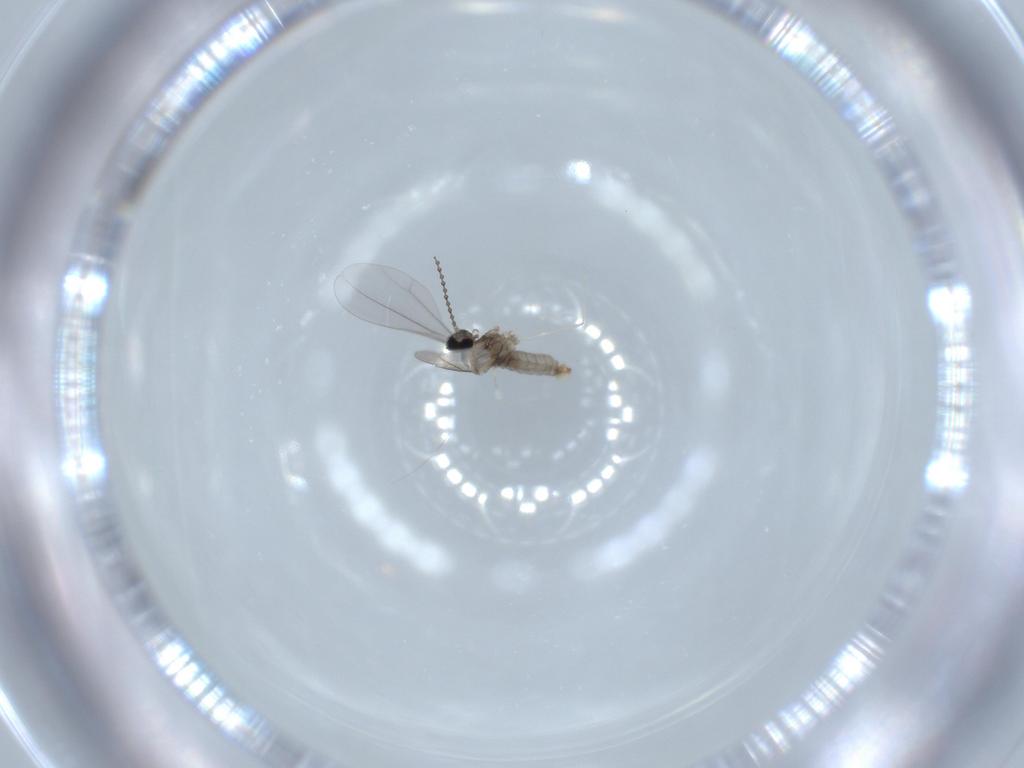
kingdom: Animalia
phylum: Arthropoda
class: Insecta
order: Diptera
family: Cecidomyiidae
